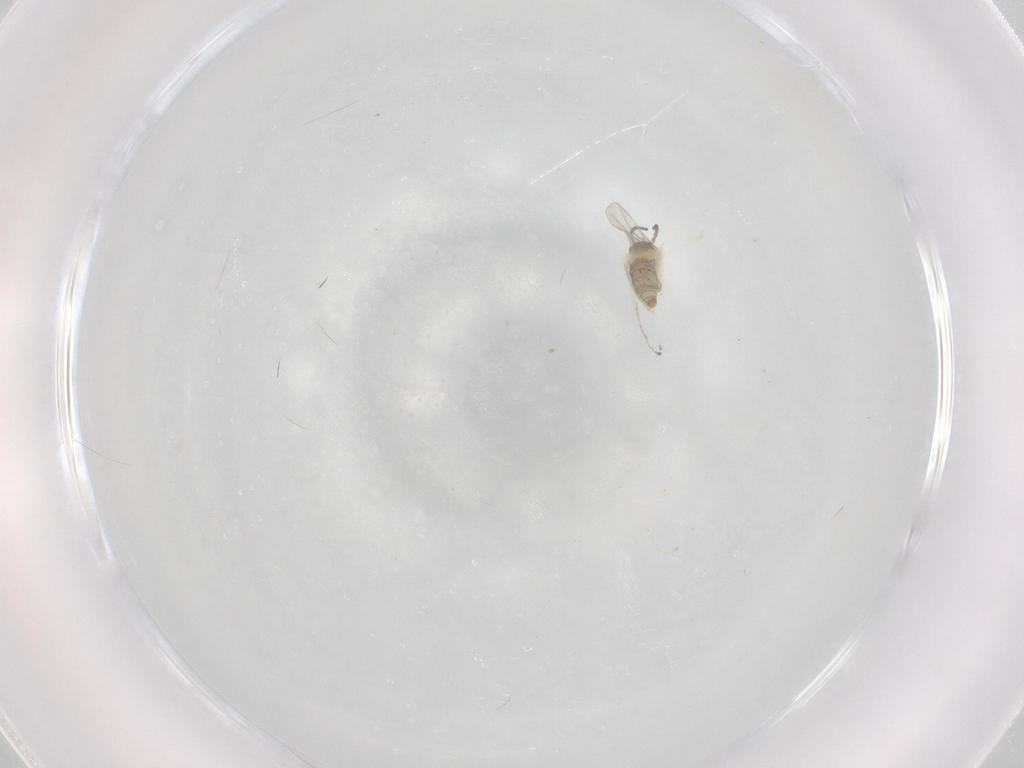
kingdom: Animalia
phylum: Arthropoda
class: Insecta
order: Diptera
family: Cecidomyiidae
